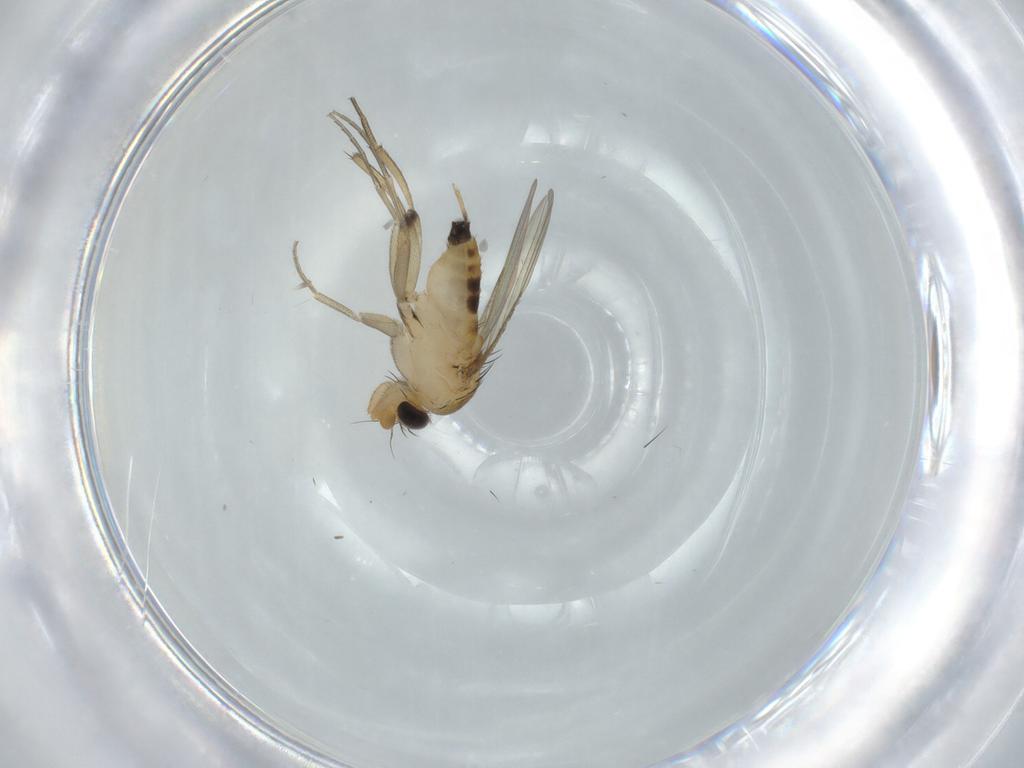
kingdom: Animalia
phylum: Arthropoda
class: Insecta
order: Diptera
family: Phoridae
